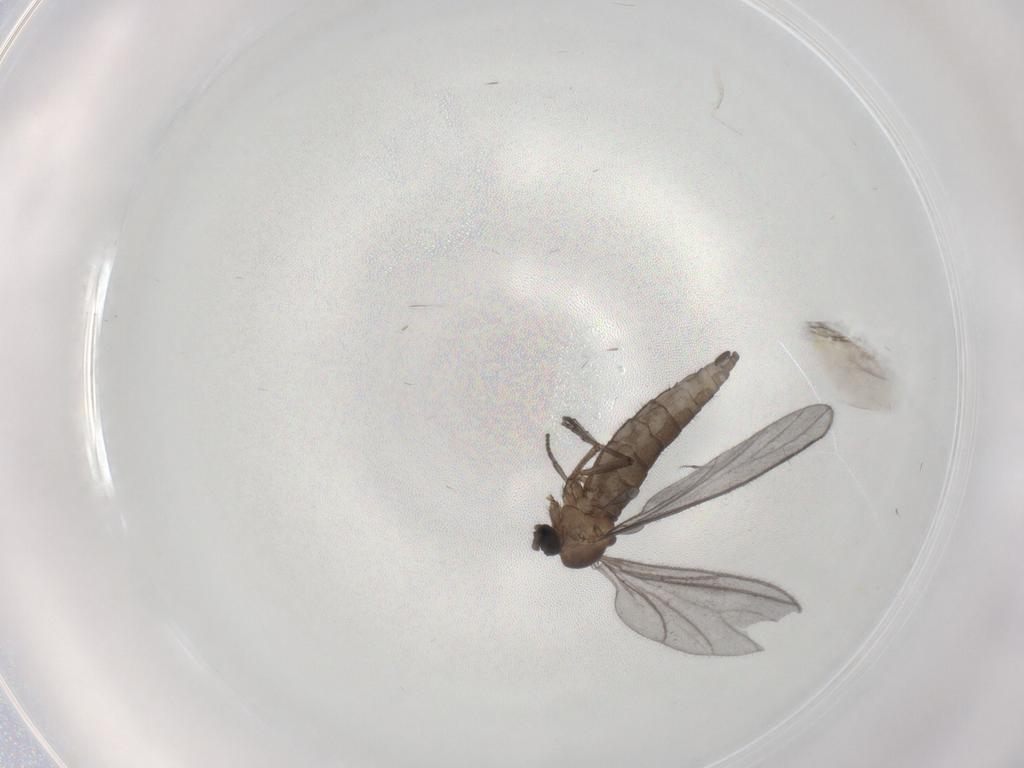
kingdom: Animalia
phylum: Arthropoda
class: Insecta
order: Diptera
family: Sciaridae
